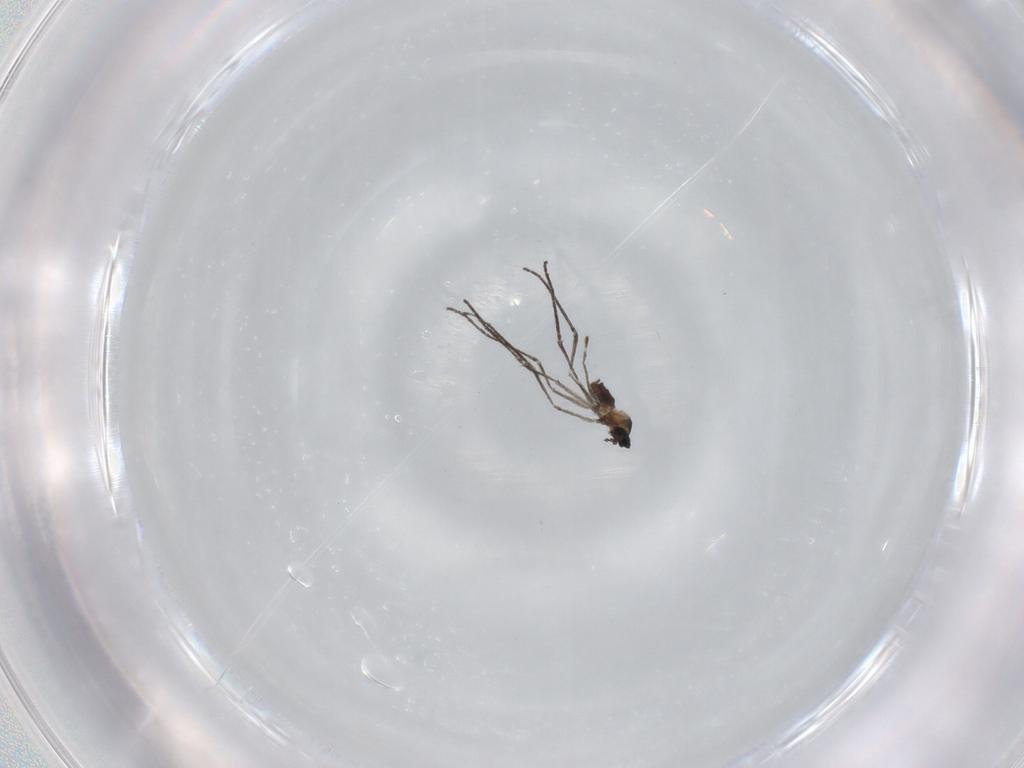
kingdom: Animalia
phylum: Arthropoda
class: Insecta
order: Diptera
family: Cecidomyiidae
